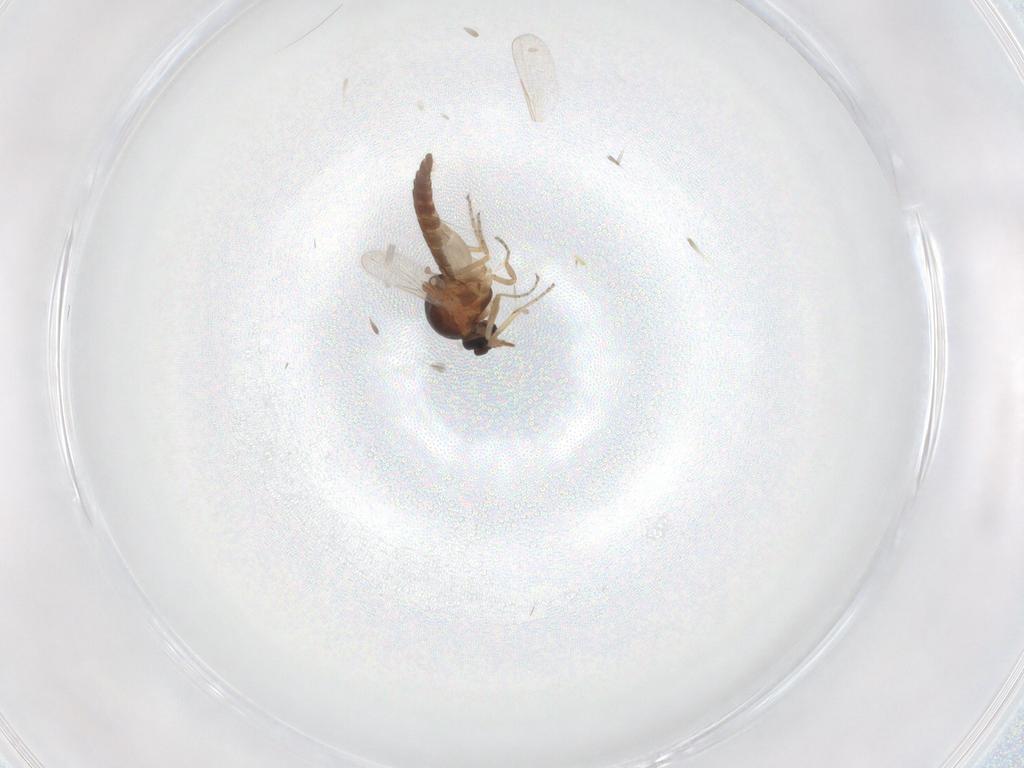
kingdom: Animalia
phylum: Arthropoda
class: Insecta
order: Diptera
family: Ceratopogonidae
